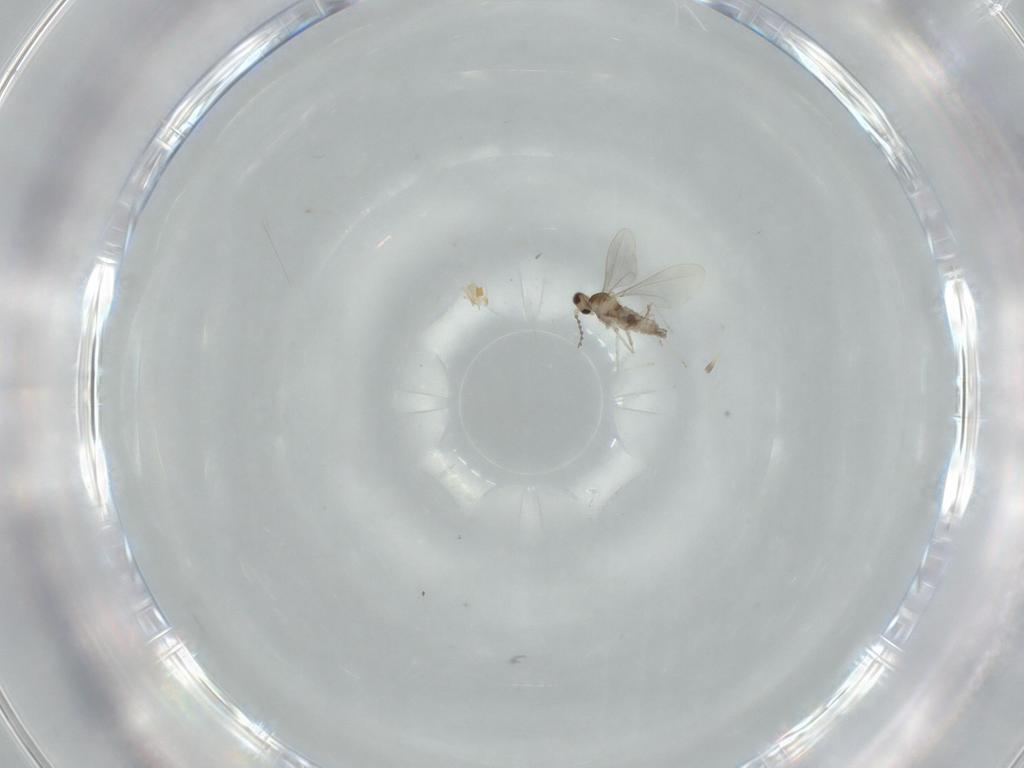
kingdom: Animalia
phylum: Arthropoda
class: Insecta
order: Diptera
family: Cecidomyiidae
